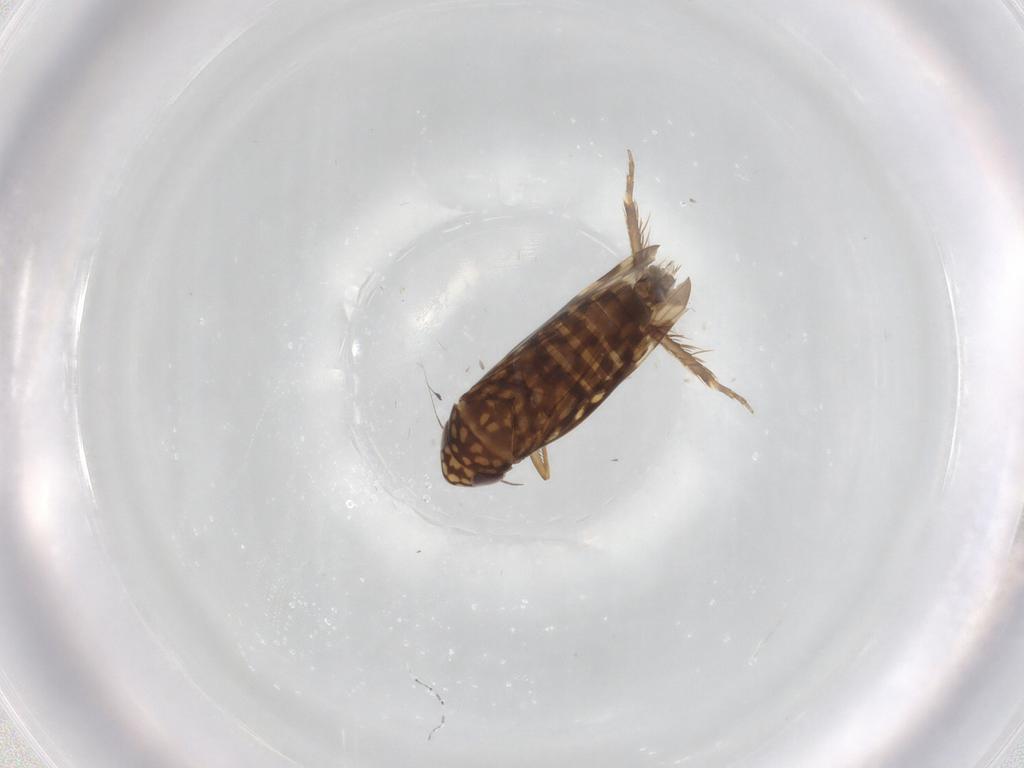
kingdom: Animalia
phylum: Arthropoda
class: Insecta
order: Hemiptera
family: Cicadellidae
